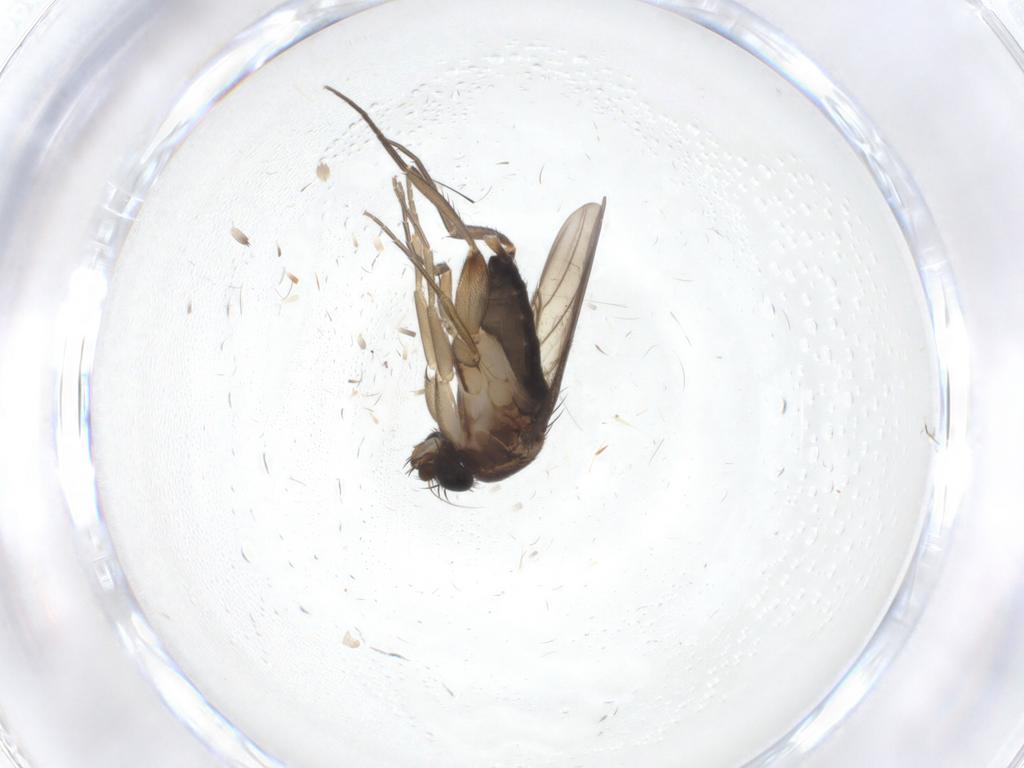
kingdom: Animalia
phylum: Arthropoda
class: Insecta
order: Diptera
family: Phoridae
